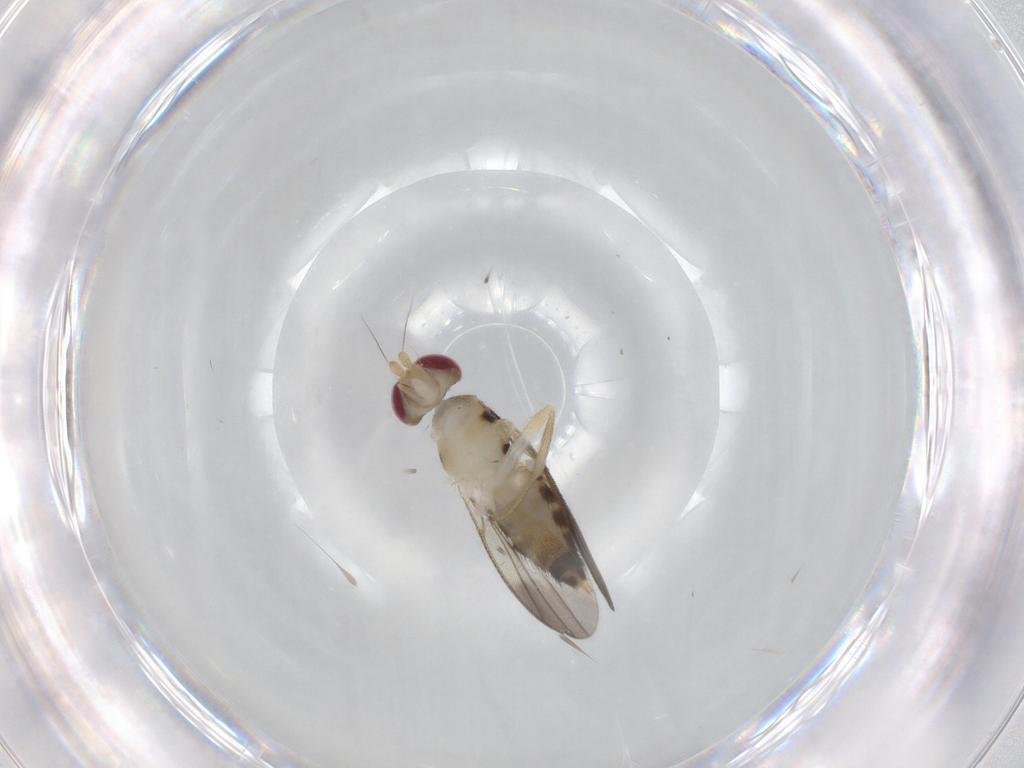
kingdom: Animalia
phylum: Arthropoda
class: Insecta
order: Diptera
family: Clusiidae
